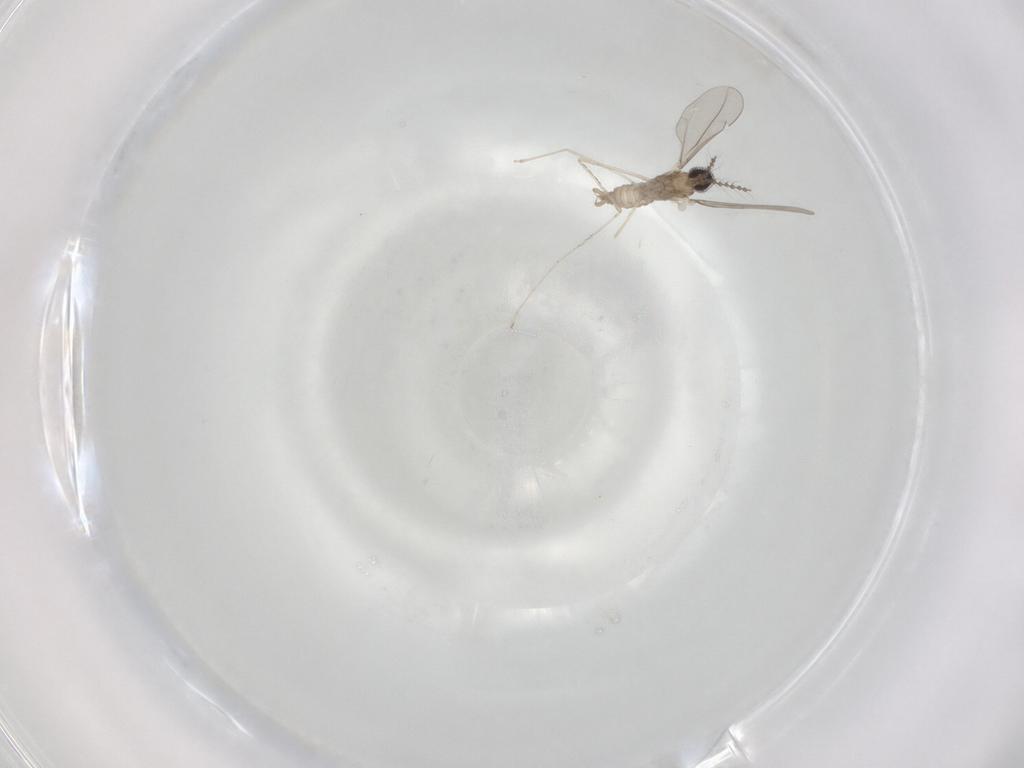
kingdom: Animalia
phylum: Arthropoda
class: Insecta
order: Diptera
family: Cecidomyiidae
